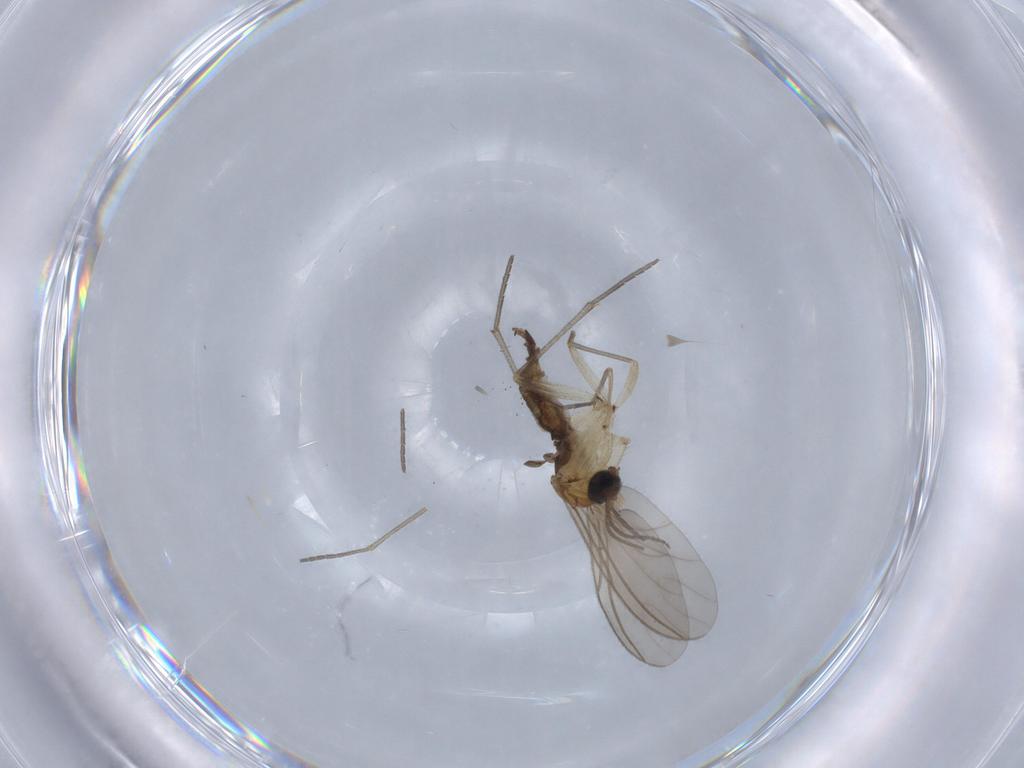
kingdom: Animalia
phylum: Arthropoda
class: Insecta
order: Diptera
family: Sciaridae
